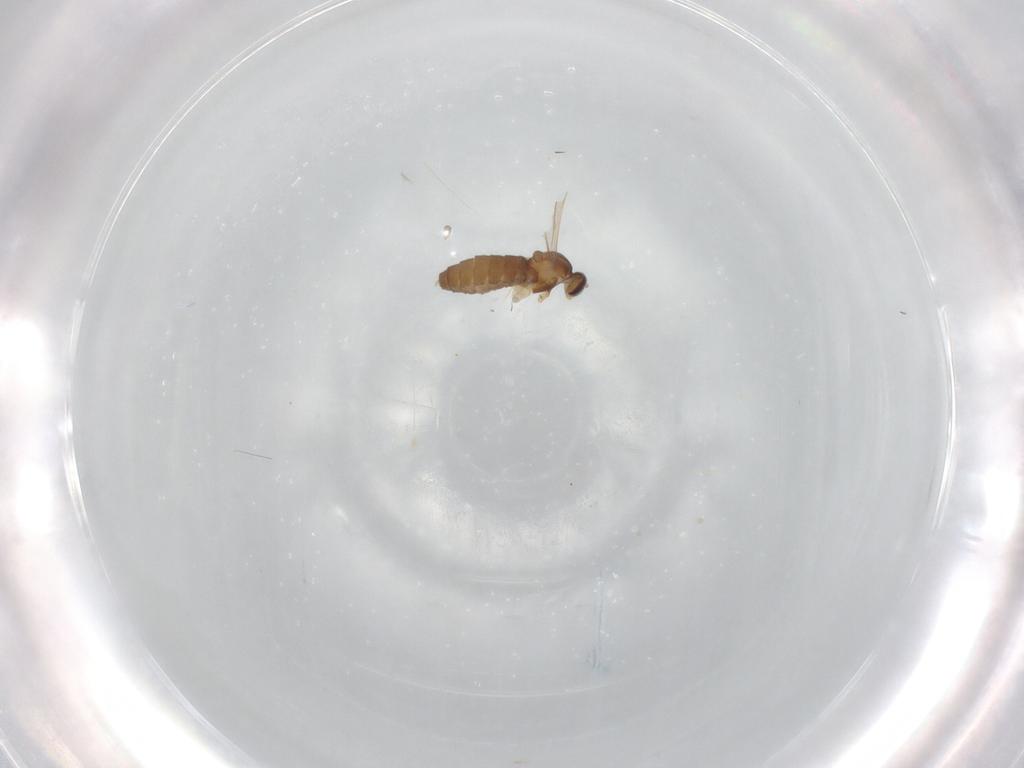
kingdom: Animalia
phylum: Arthropoda
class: Insecta
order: Diptera
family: Cecidomyiidae
